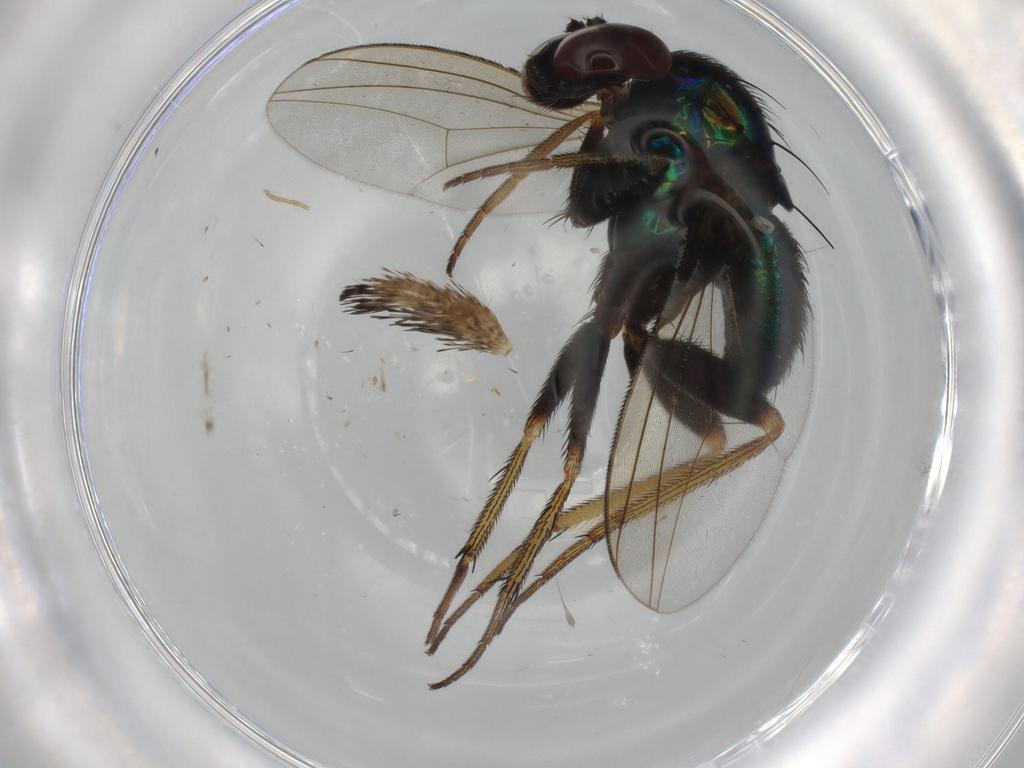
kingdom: Animalia
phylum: Arthropoda
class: Insecta
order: Diptera
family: Dolichopodidae
